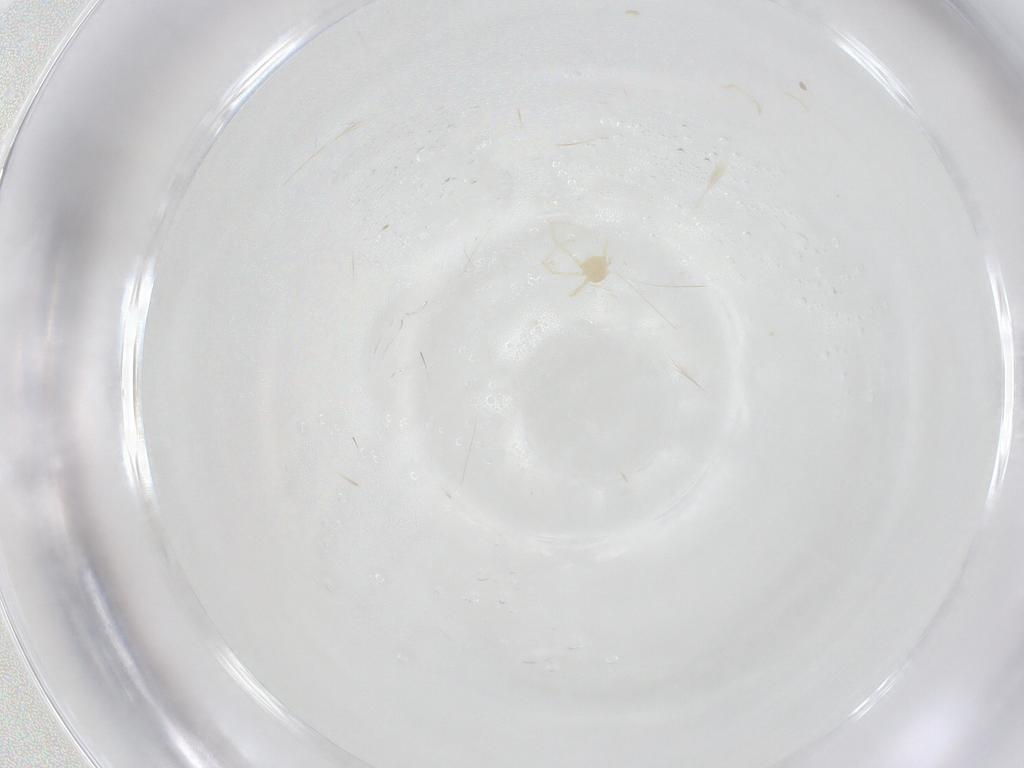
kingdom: Animalia
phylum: Arthropoda
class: Arachnida
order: Trombidiformes
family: Erythraeidae
